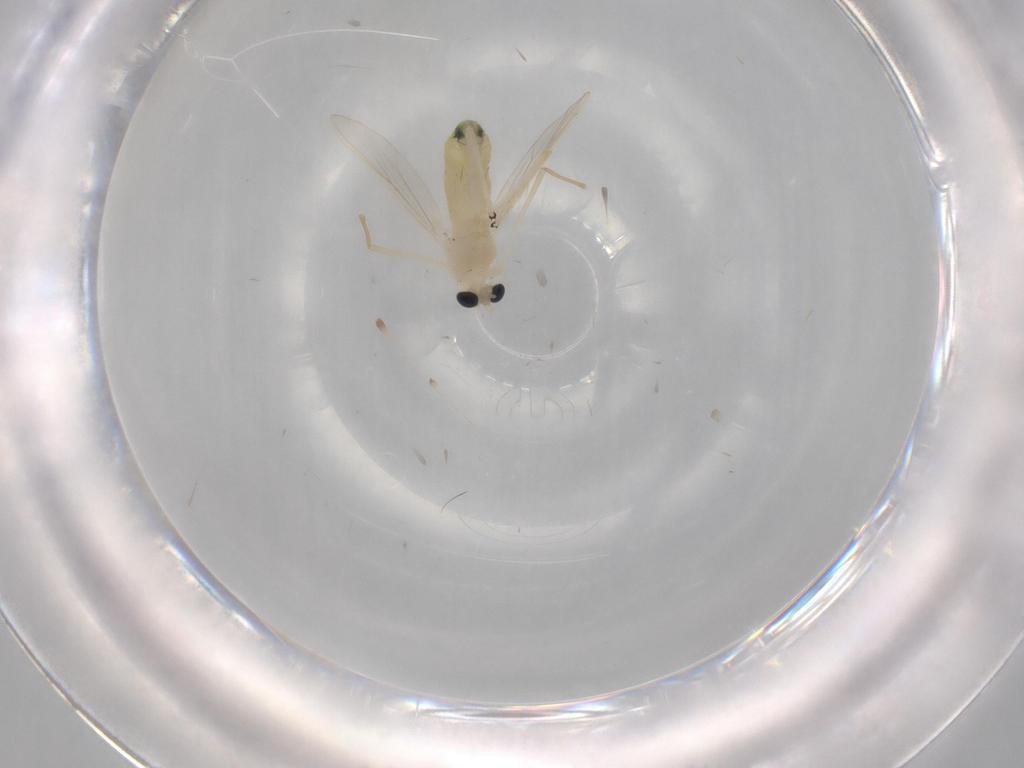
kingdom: Animalia
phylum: Arthropoda
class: Insecta
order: Diptera
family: Chironomidae
